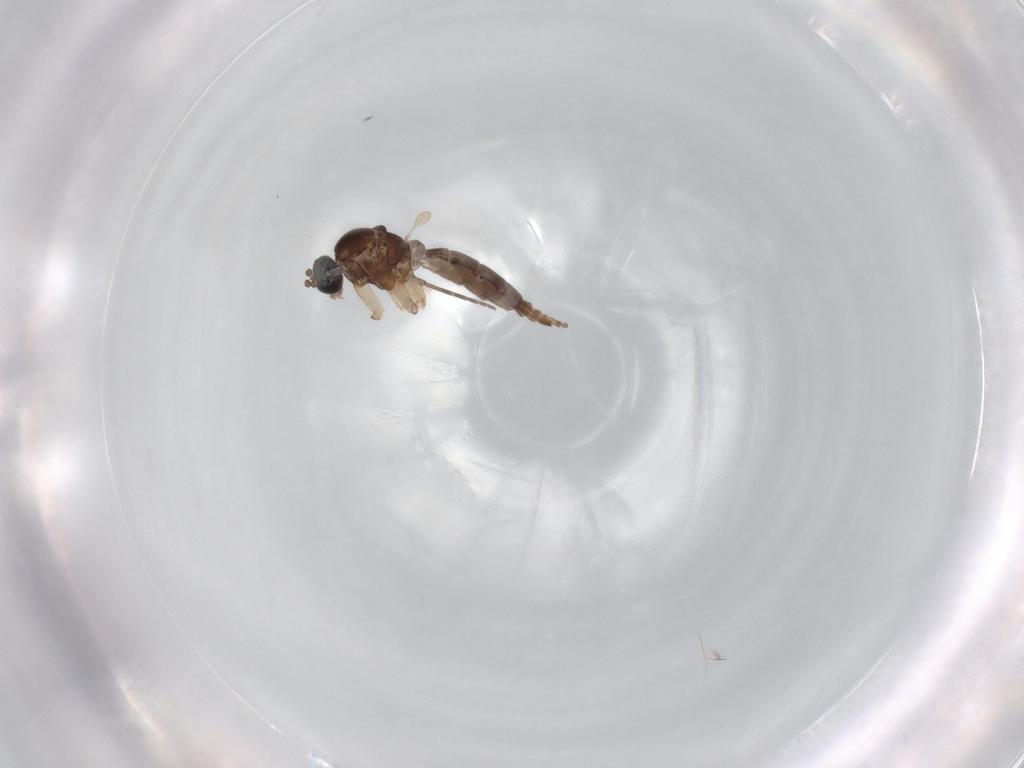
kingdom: Animalia
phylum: Arthropoda
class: Insecta
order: Diptera
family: Sciaridae
